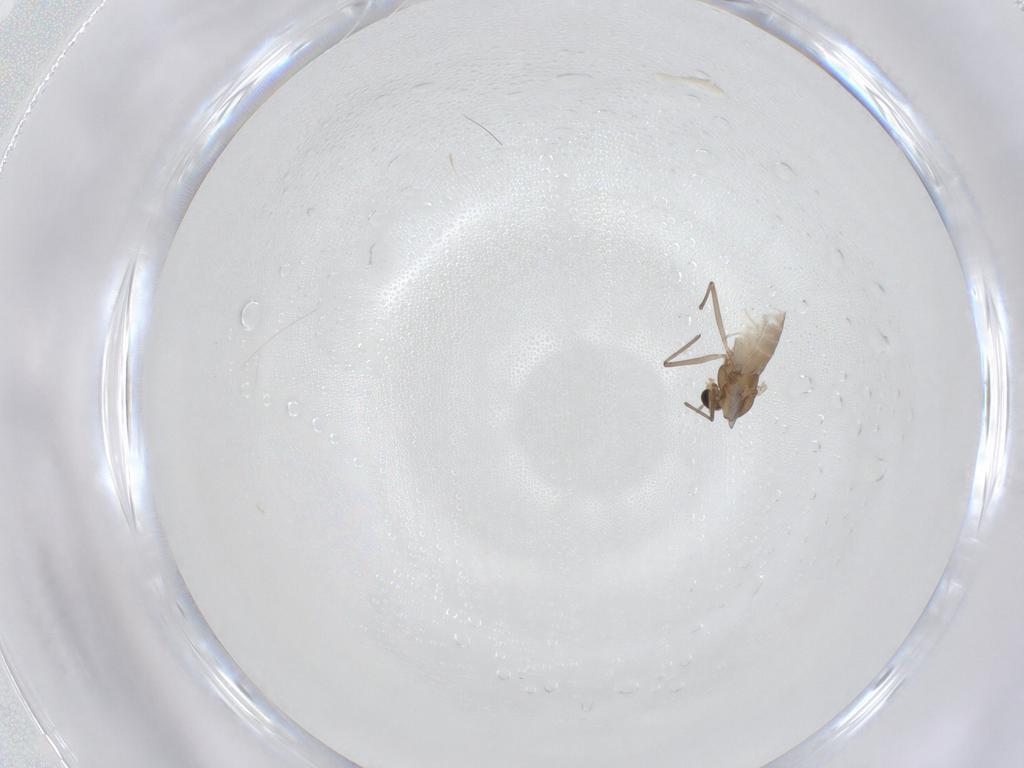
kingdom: Animalia
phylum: Arthropoda
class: Insecta
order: Diptera
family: Chironomidae
